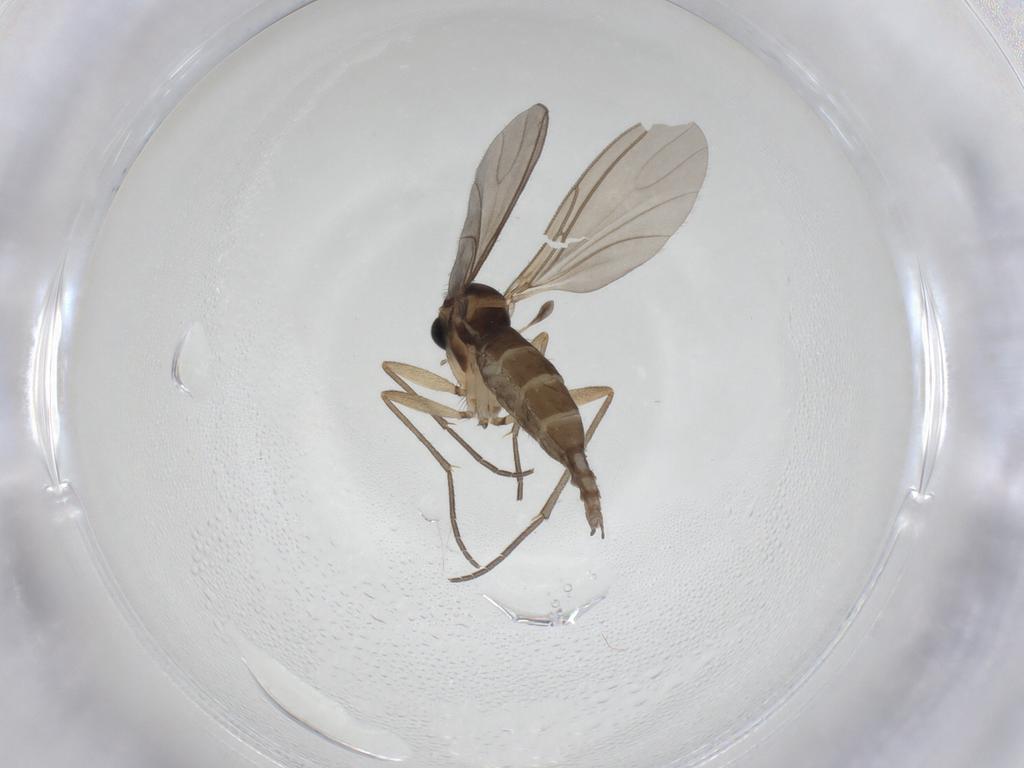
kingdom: Animalia
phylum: Arthropoda
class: Insecta
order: Diptera
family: Sciaridae
